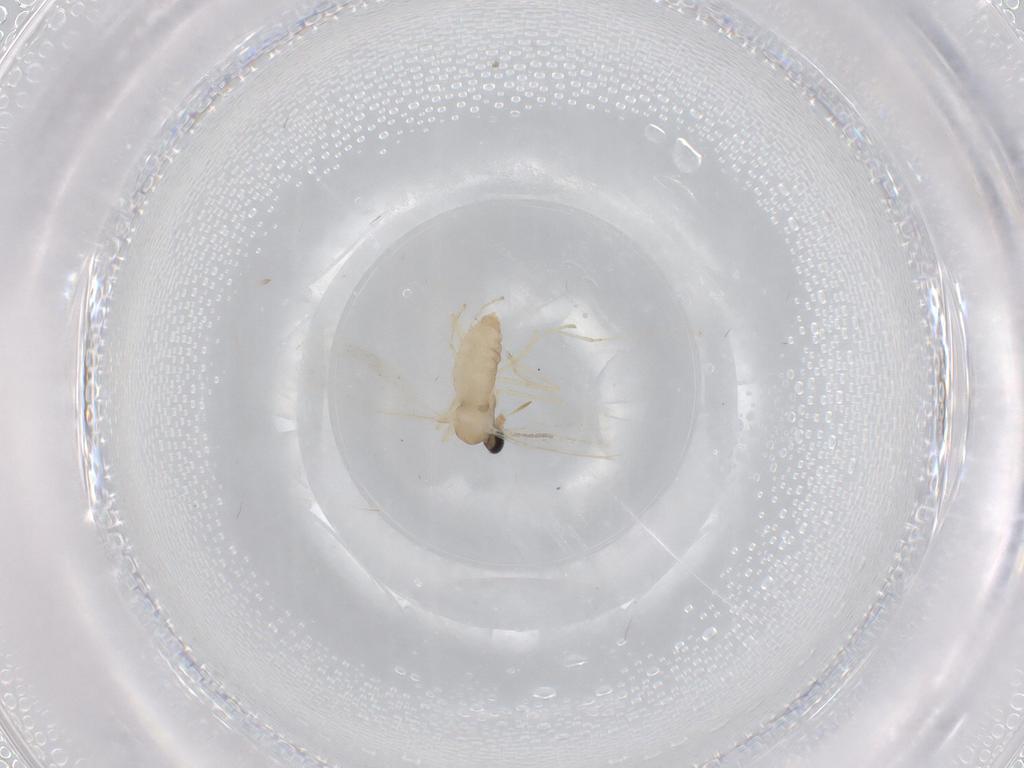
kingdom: Animalia
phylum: Arthropoda
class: Insecta
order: Diptera
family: Cecidomyiidae
